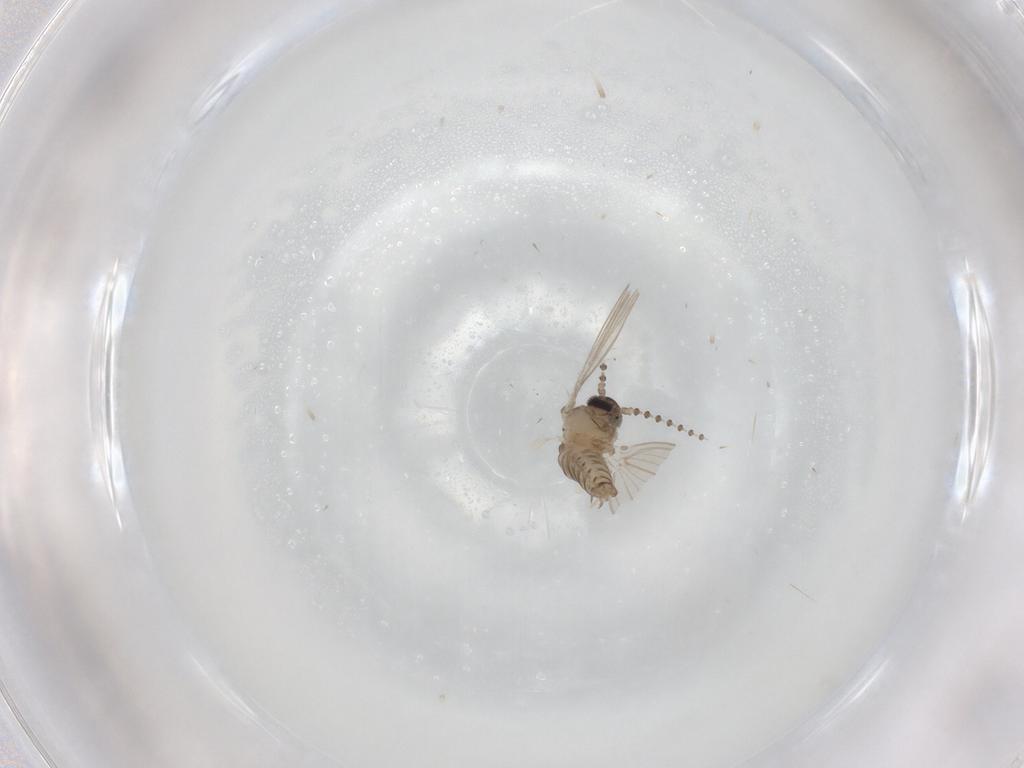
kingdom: Animalia
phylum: Arthropoda
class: Insecta
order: Diptera
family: Psychodidae
